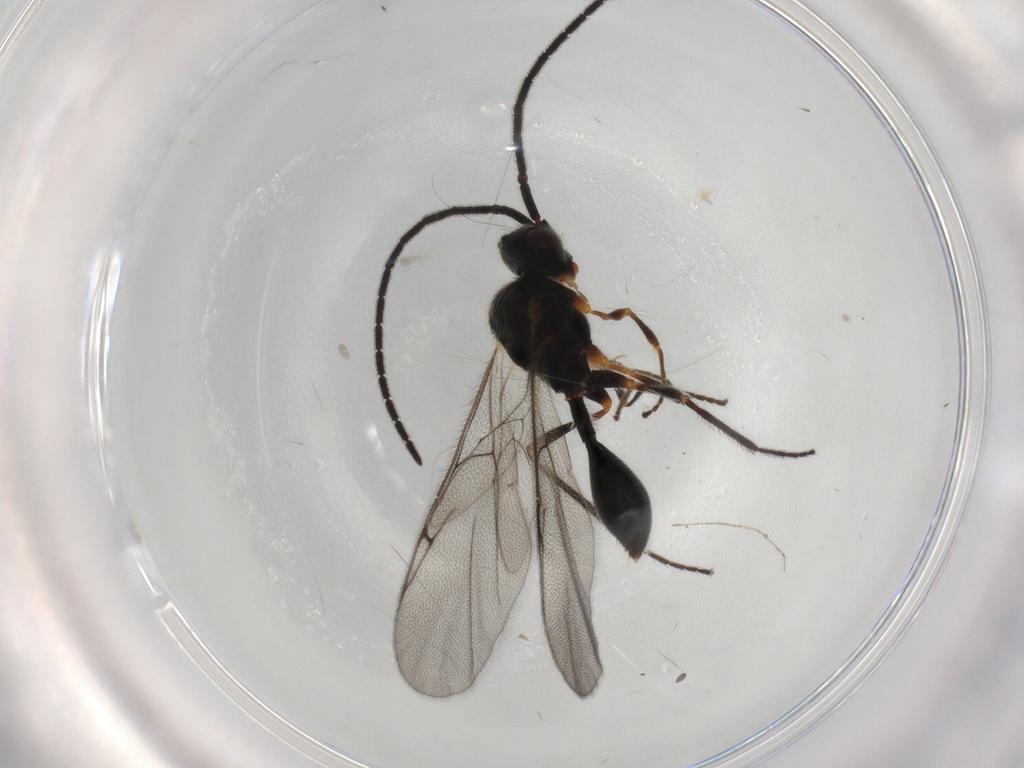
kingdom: Animalia
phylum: Arthropoda
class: Insecta
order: Hymenoptera
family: Diapriidae
